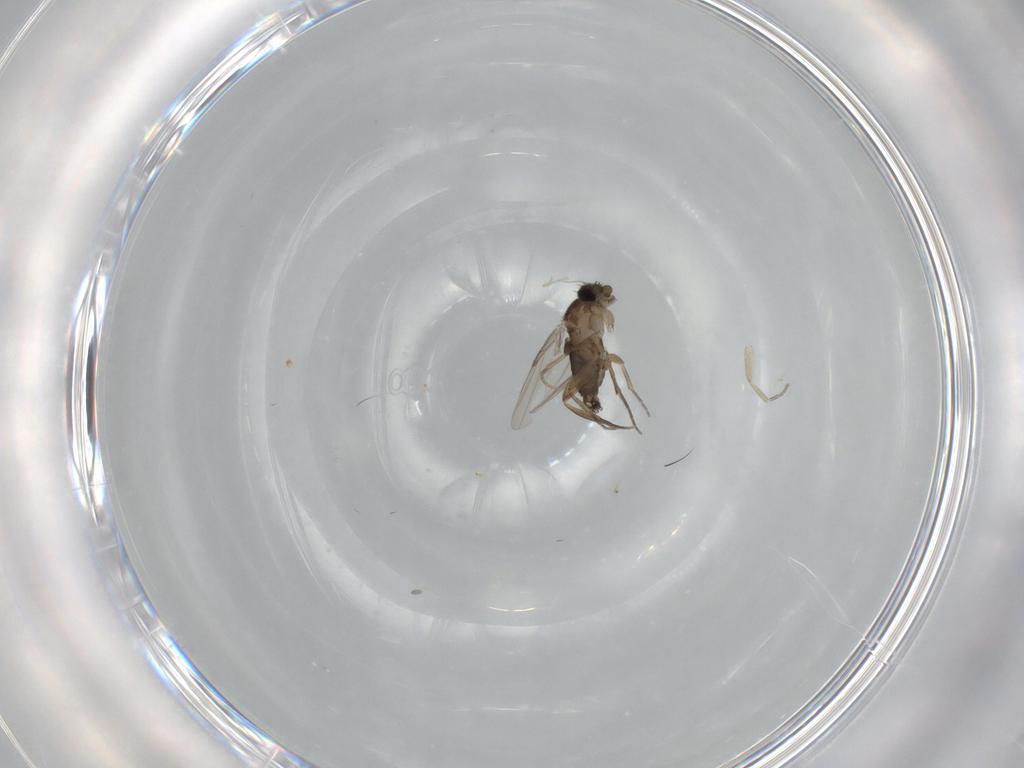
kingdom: Animalia
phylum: Arthropoda
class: Insecta
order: Diptera
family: Phoridae
